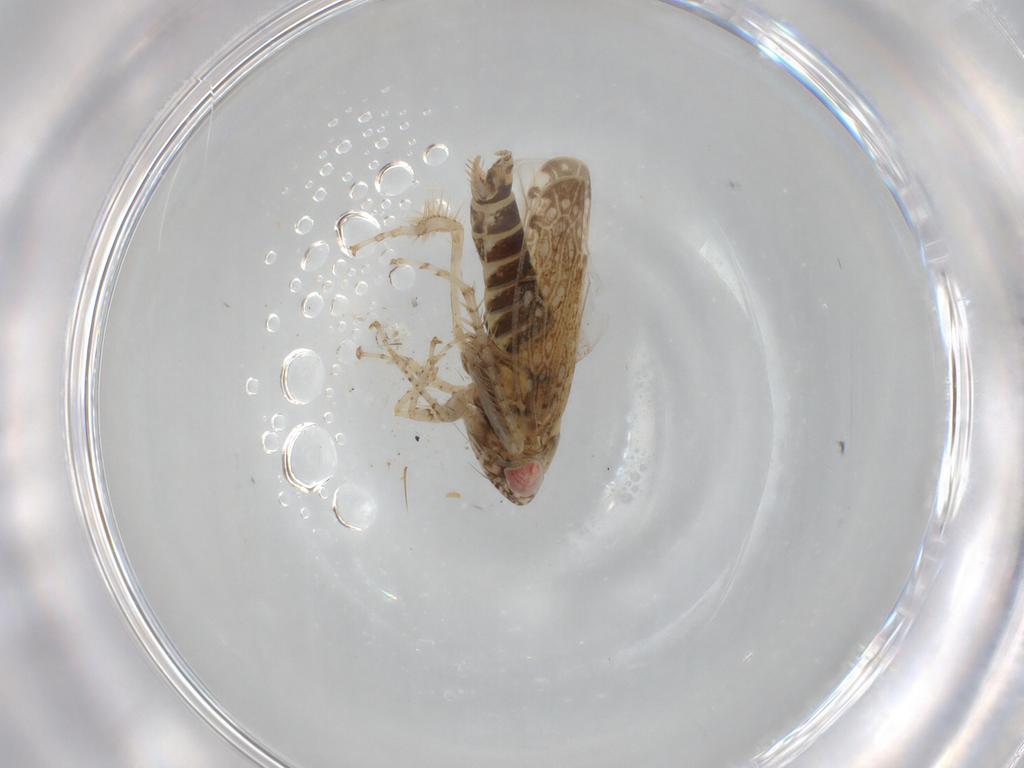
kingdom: Animalia
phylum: Arthropoda
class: Insecta
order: Hemiptera
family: Cicadellidae
